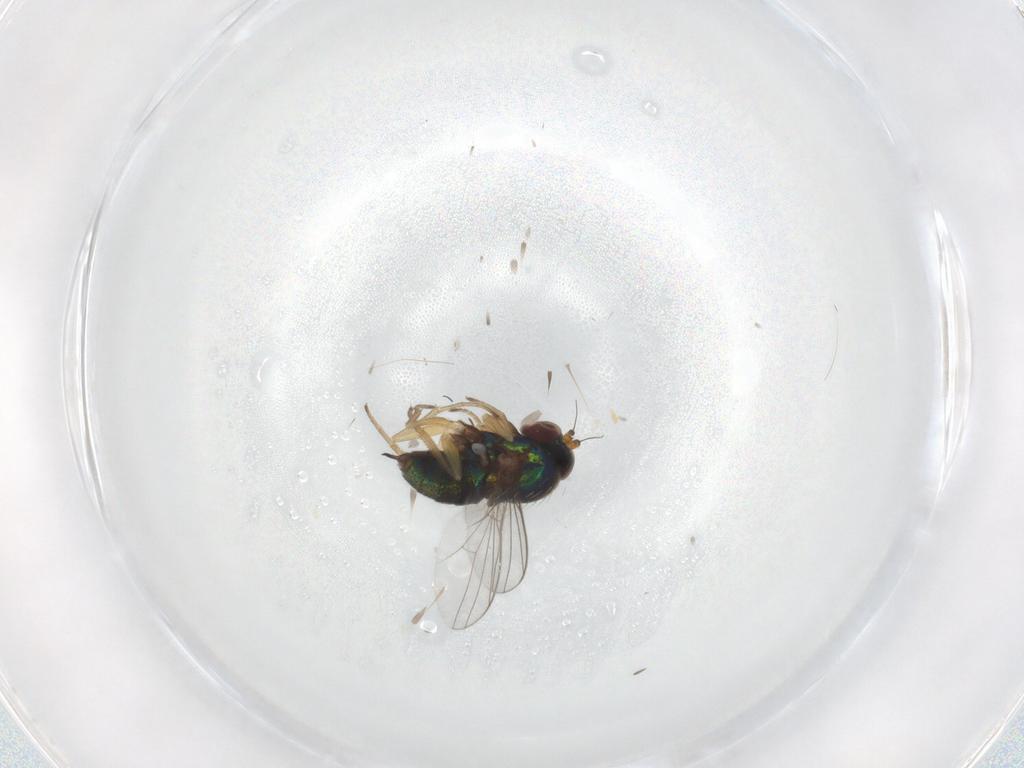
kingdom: Animalia
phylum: Arthropoda
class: Insecta
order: Diptera
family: Dolichopodidae
